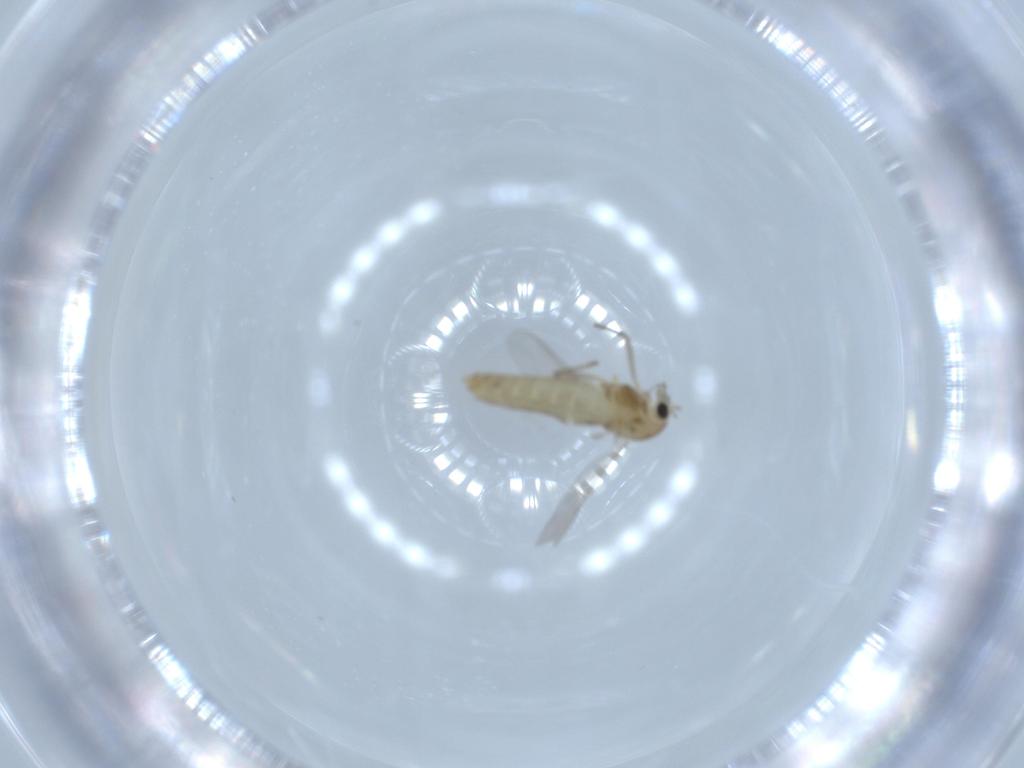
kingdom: Animalia
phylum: Arthropoda
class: Insecta
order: Diptera
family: Chironomidae
